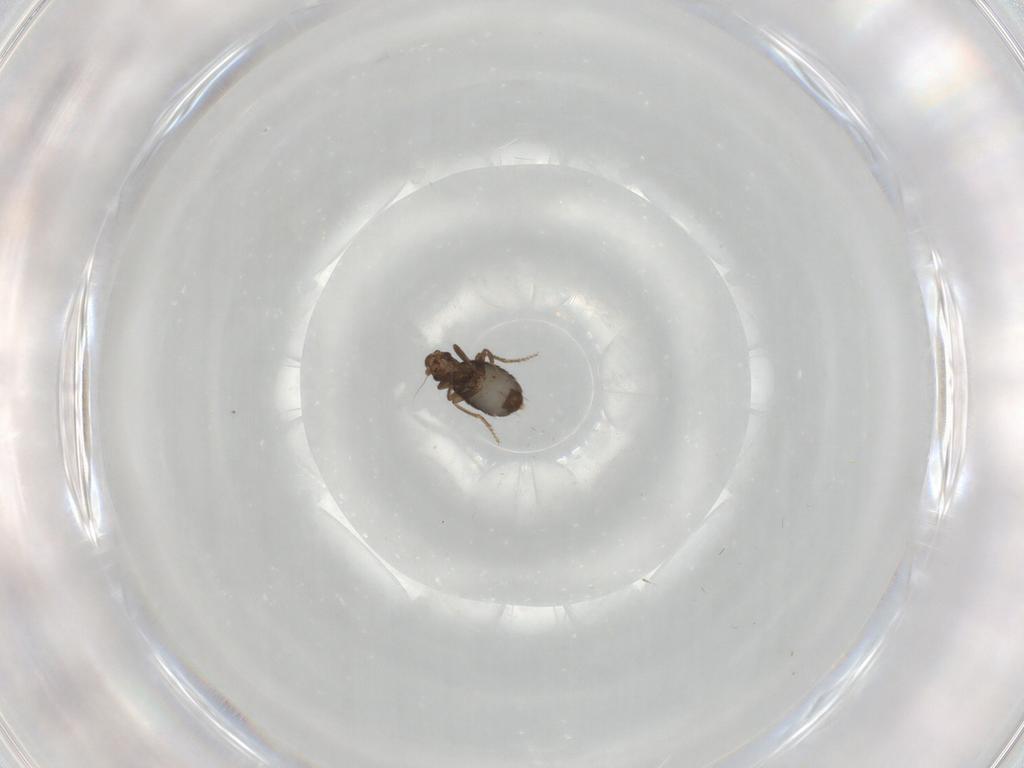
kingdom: Animalia
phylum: Arthropoda
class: Insecta
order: Diptera
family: Phoridae
